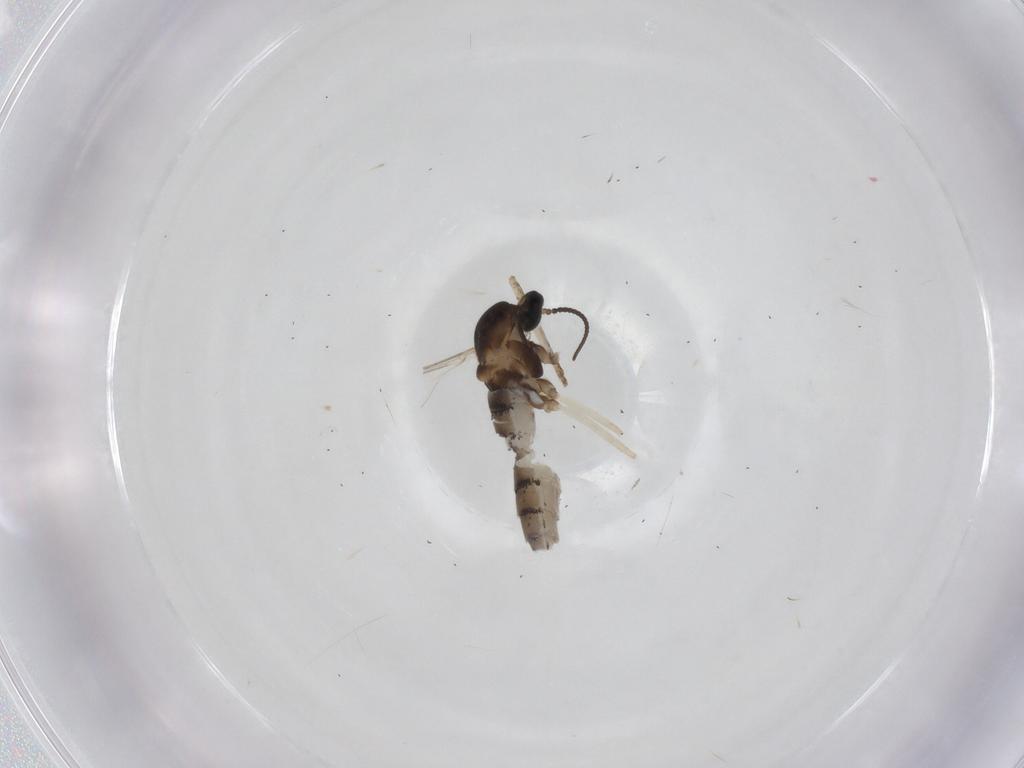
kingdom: Animalia
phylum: Arthropoda
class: Insecta
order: Diptera
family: Cecidomyiidae
